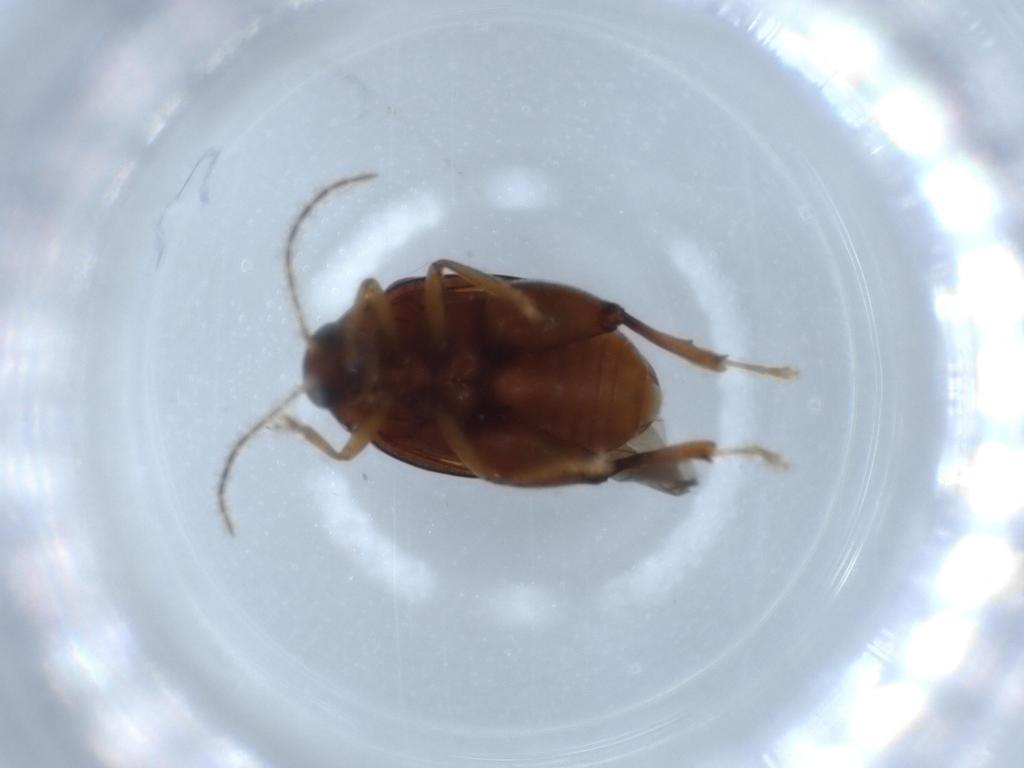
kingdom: Animalia
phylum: Arthropoda
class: Insecta
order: Coleoptera
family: Chrysomelidae
